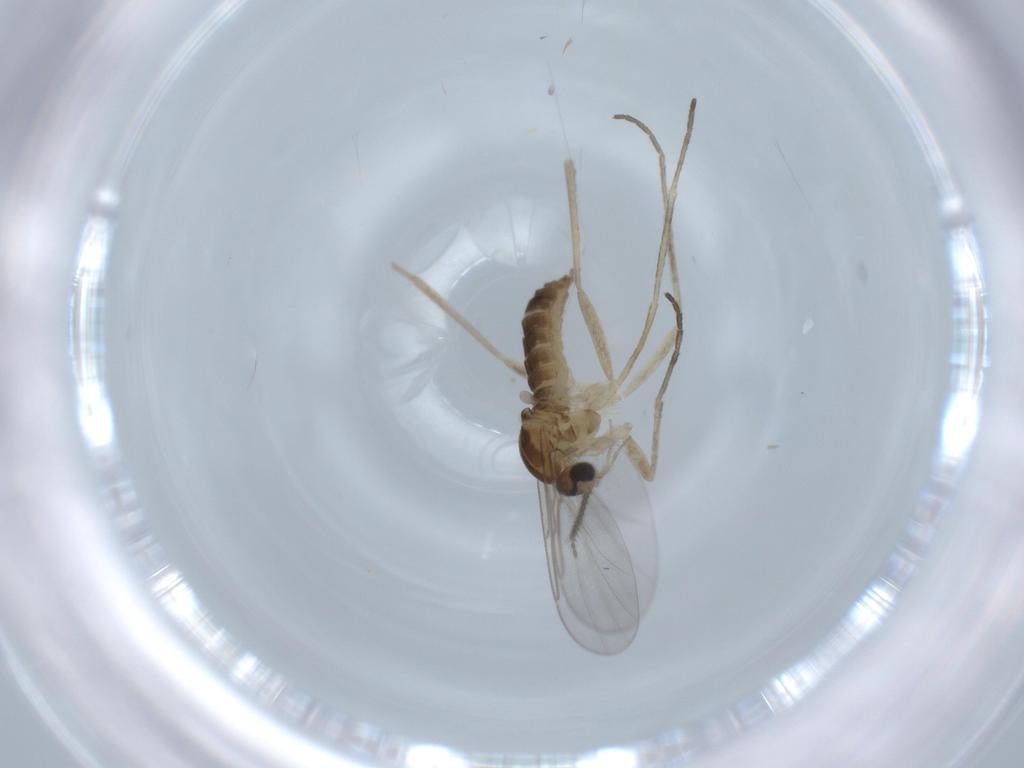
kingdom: Animalia
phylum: Arthropoda
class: Insecta
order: Diptera
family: Cecidomyiidae
